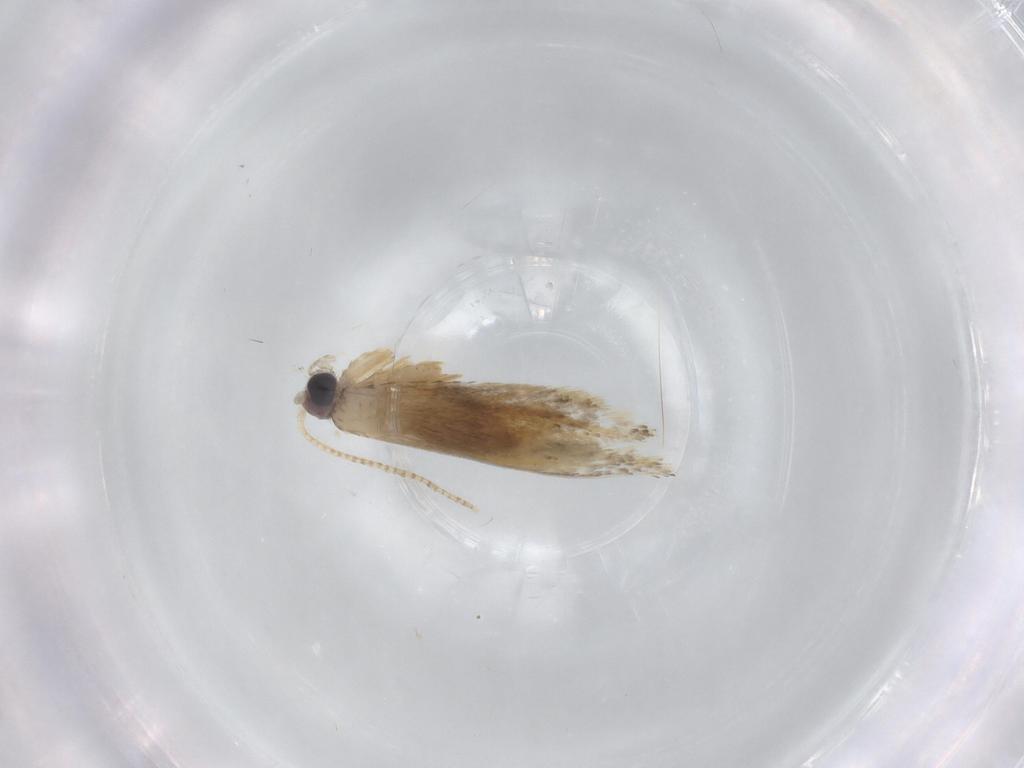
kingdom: Animalia
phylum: Arthropoda
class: Insecta
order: Lepidoptera
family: Nepticulidae
